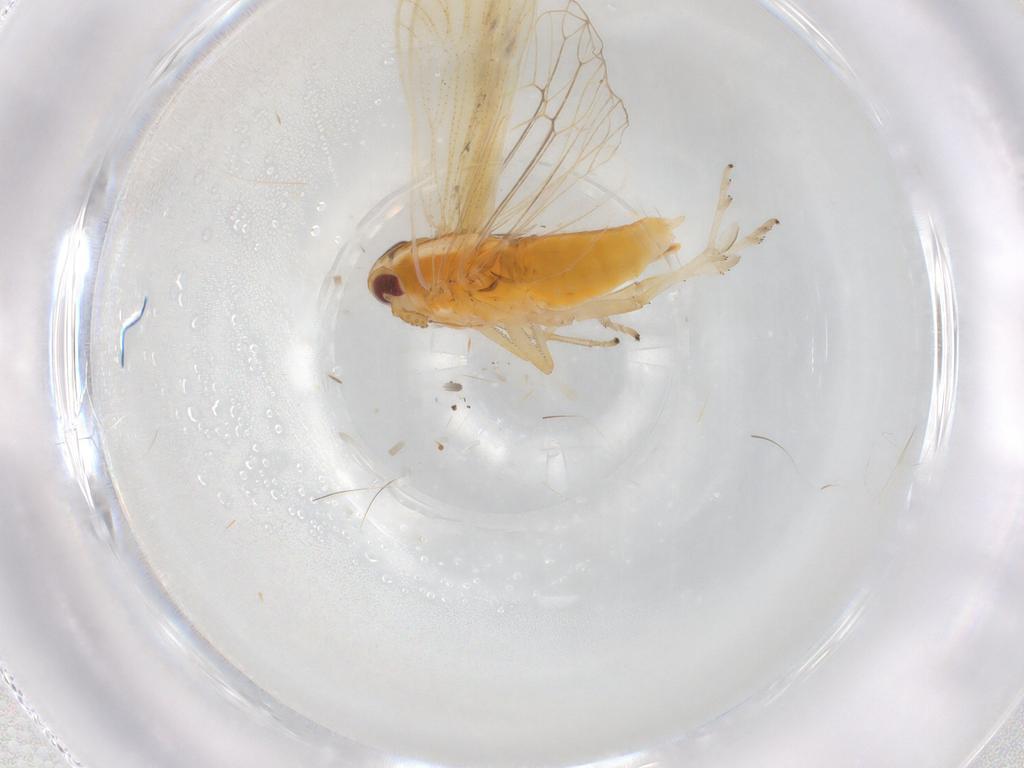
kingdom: Animalia
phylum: Arthropoda
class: Insecta
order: Hemiptera
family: Delphacidae
